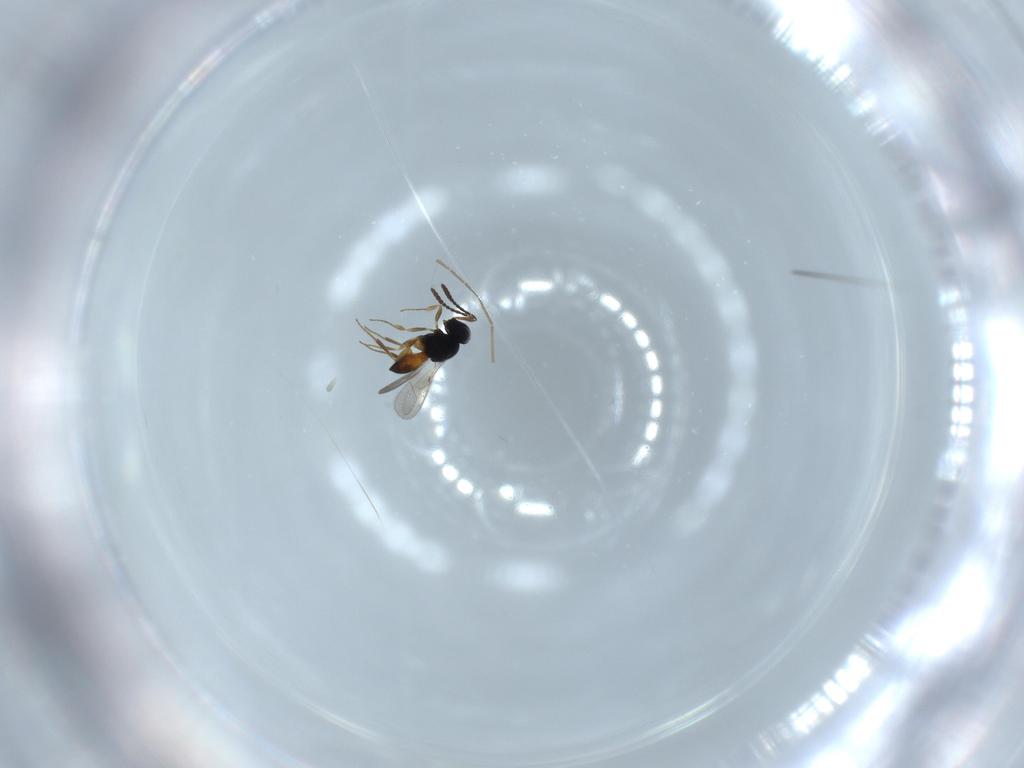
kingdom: Animalia
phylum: Arthropoda
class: Insecta
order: Hymenoptera
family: Scelionidae
